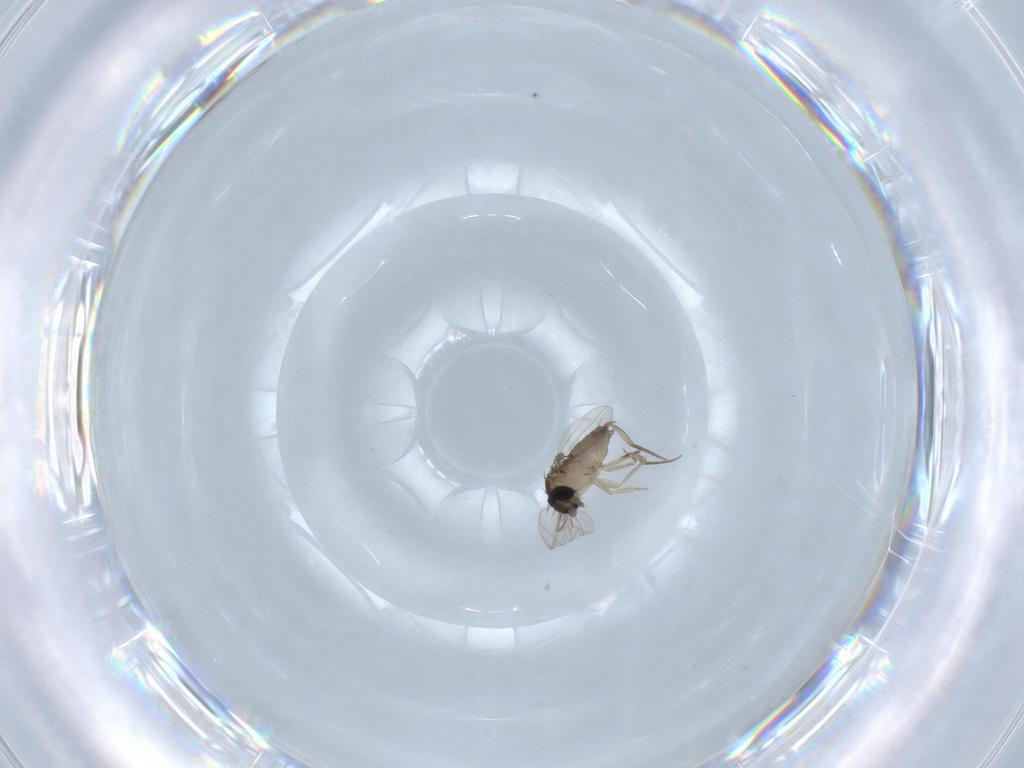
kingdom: Animalia
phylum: Arthropoda
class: Insecta
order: Diptera
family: Phoridae
